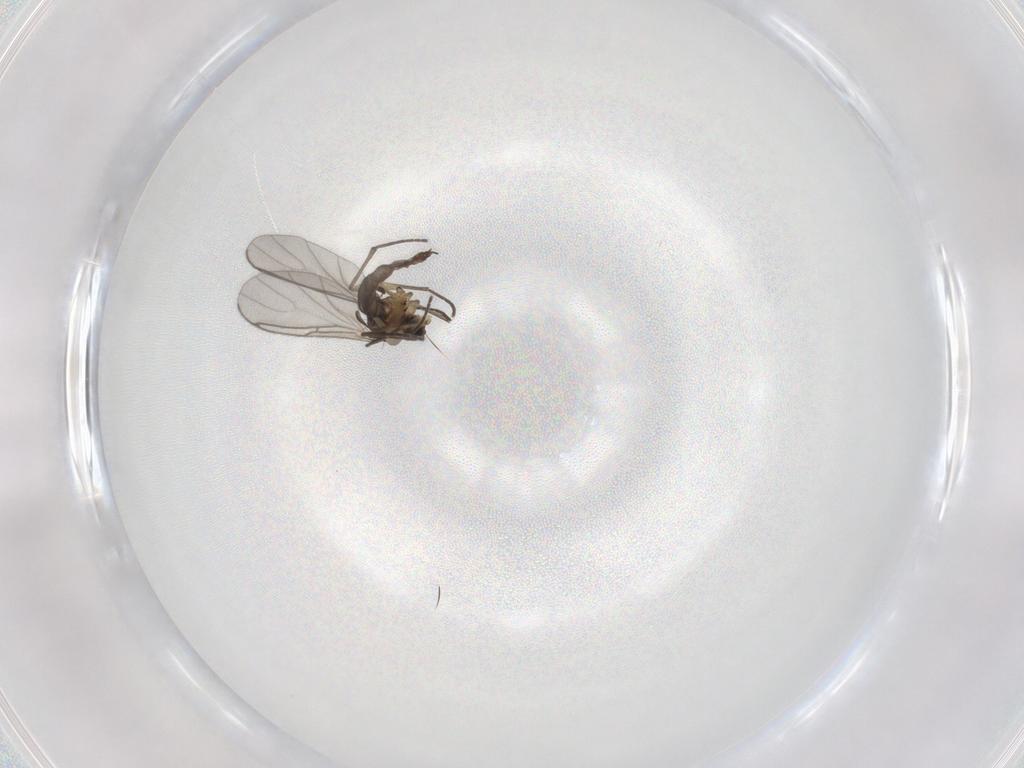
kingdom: Animalia
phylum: Arthropoda
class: Insecta
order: Diptera
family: Sciaridae
